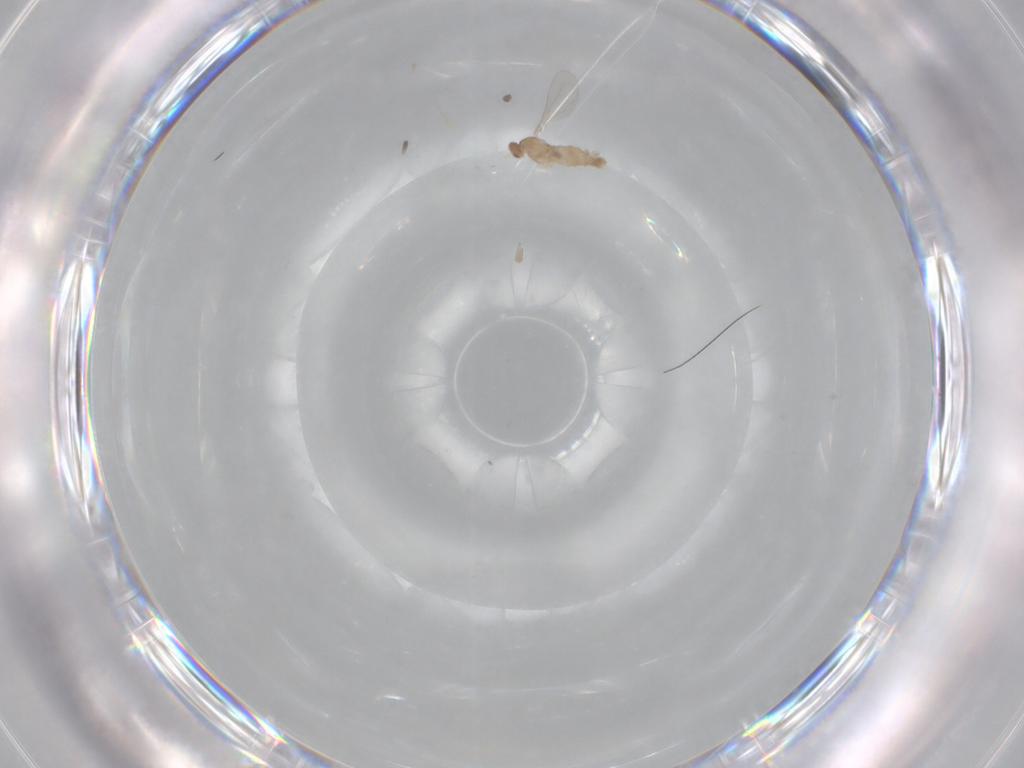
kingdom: Animalia
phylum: Arthropoda
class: Insecta
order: Diptera
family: Cecidomyiidae
